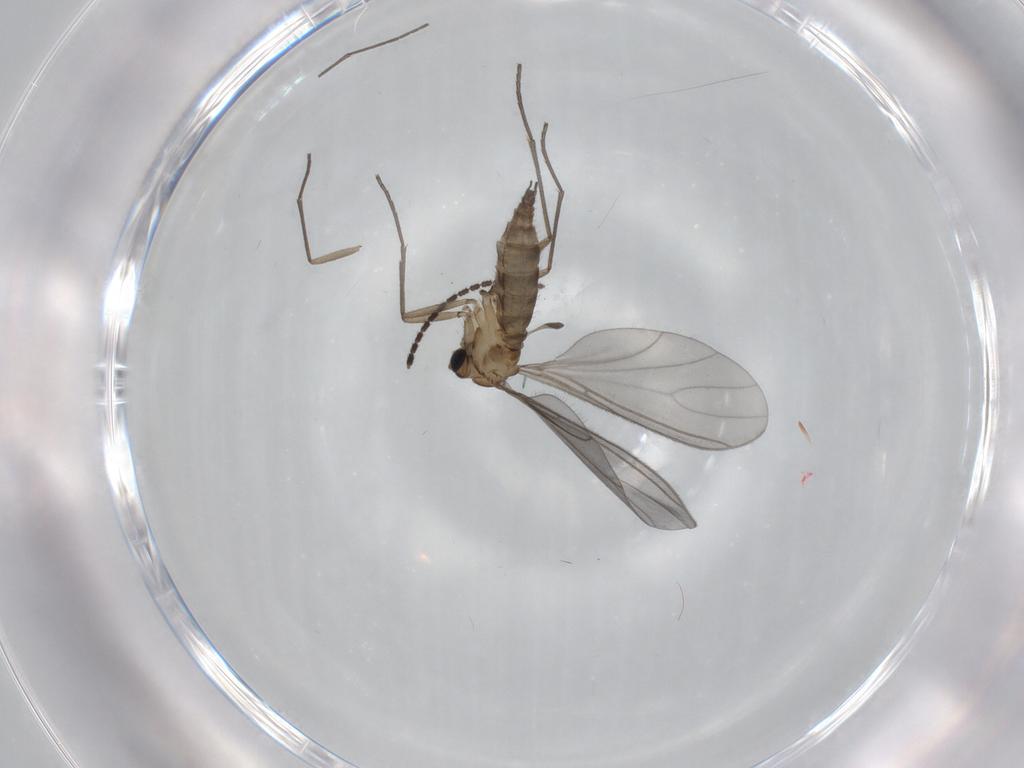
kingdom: Animalia
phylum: Arthropoda
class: Insecta
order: Diptera
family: Sciaridae
